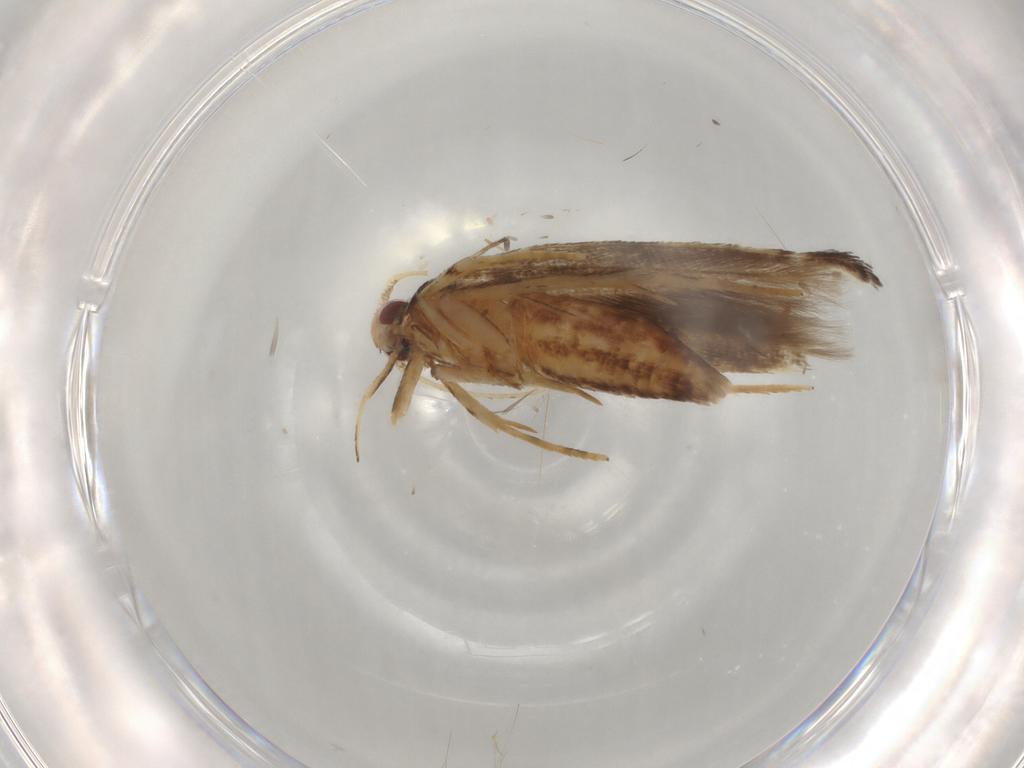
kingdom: Animalia
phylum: Arthropoda
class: Insecta
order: Lepidoptera
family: Cosmopterigidae
